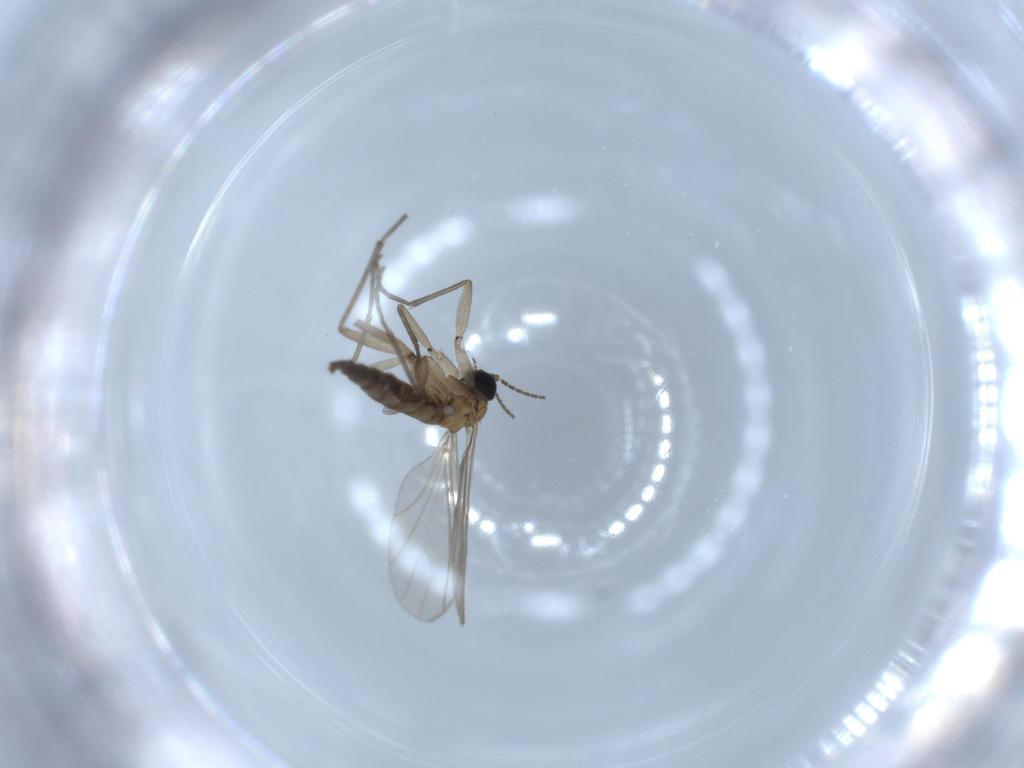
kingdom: Animalia
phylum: Arthropoda
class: Insecta
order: Diptera
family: Sciaridae
